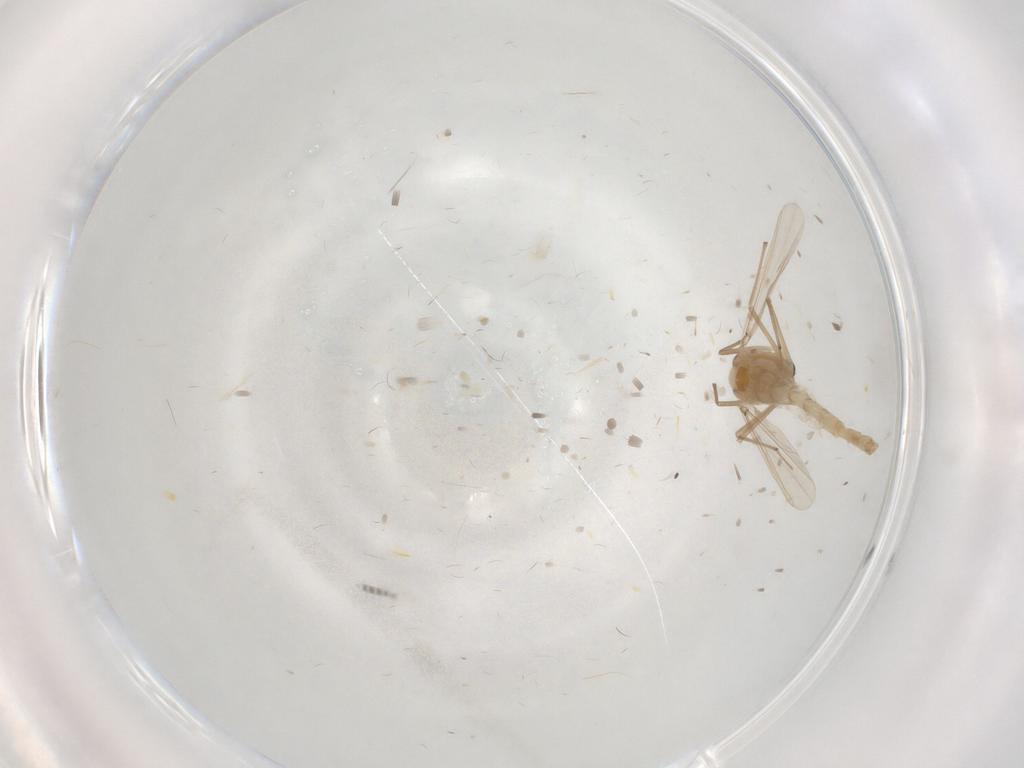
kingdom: Animalia
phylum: Arthropoda
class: Insecta
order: Diptera
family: Chironomidae
